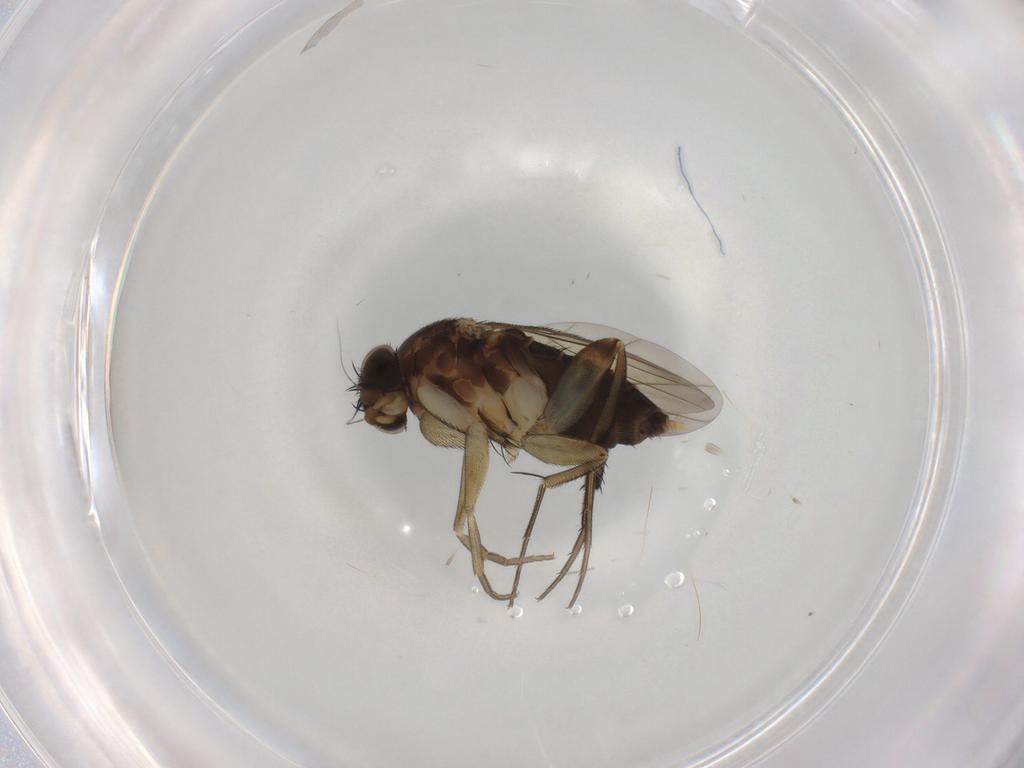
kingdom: Animalia
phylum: Arthropoda
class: Insecta
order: Diptera
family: Phoridae
